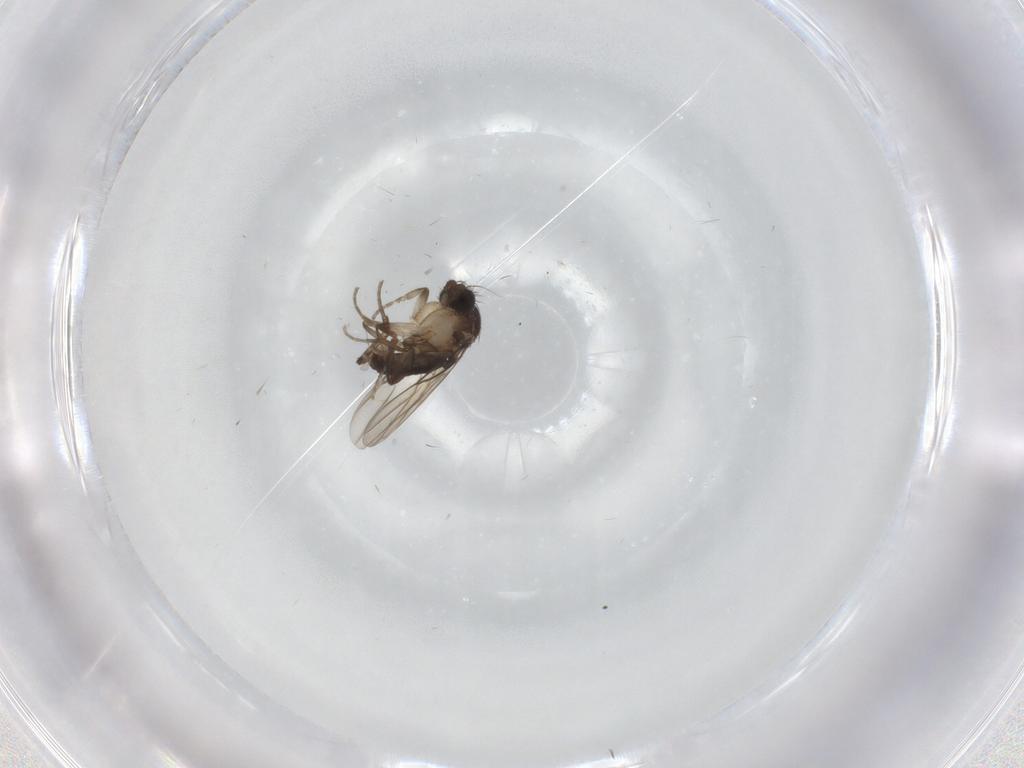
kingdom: Animalia
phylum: Arthropoda
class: Insecta
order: Diptera
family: Phoridae
